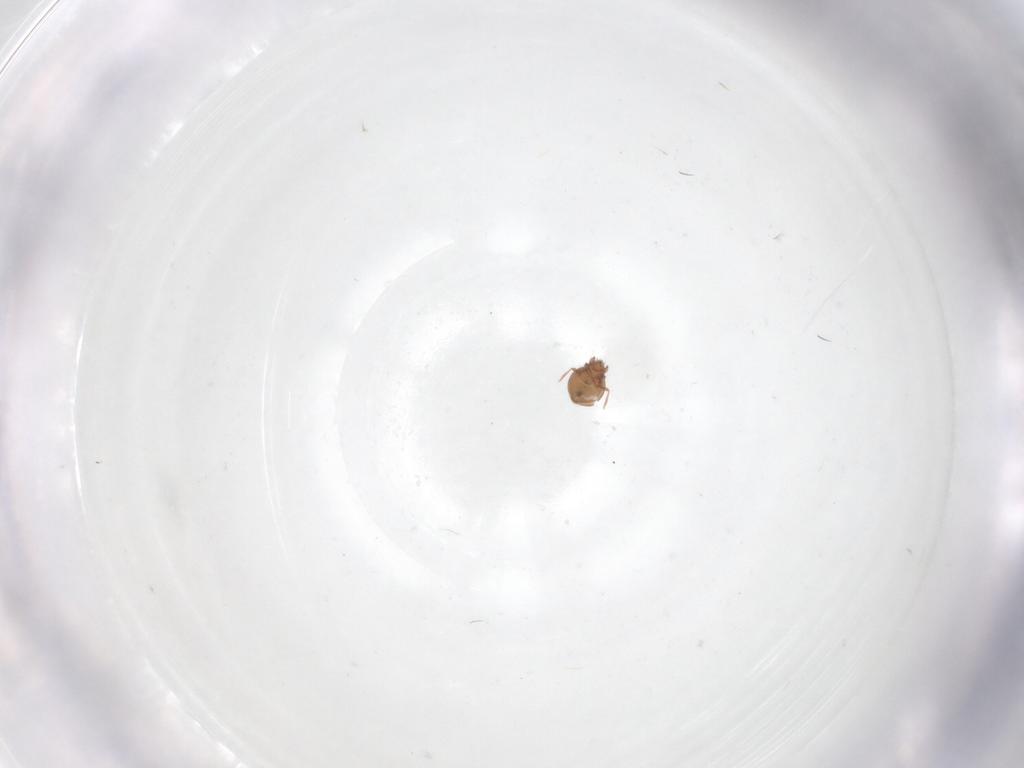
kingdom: Animalia
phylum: Arthropoda
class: Arachnida
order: Sarcoptiformes
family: Scheloribatidae
